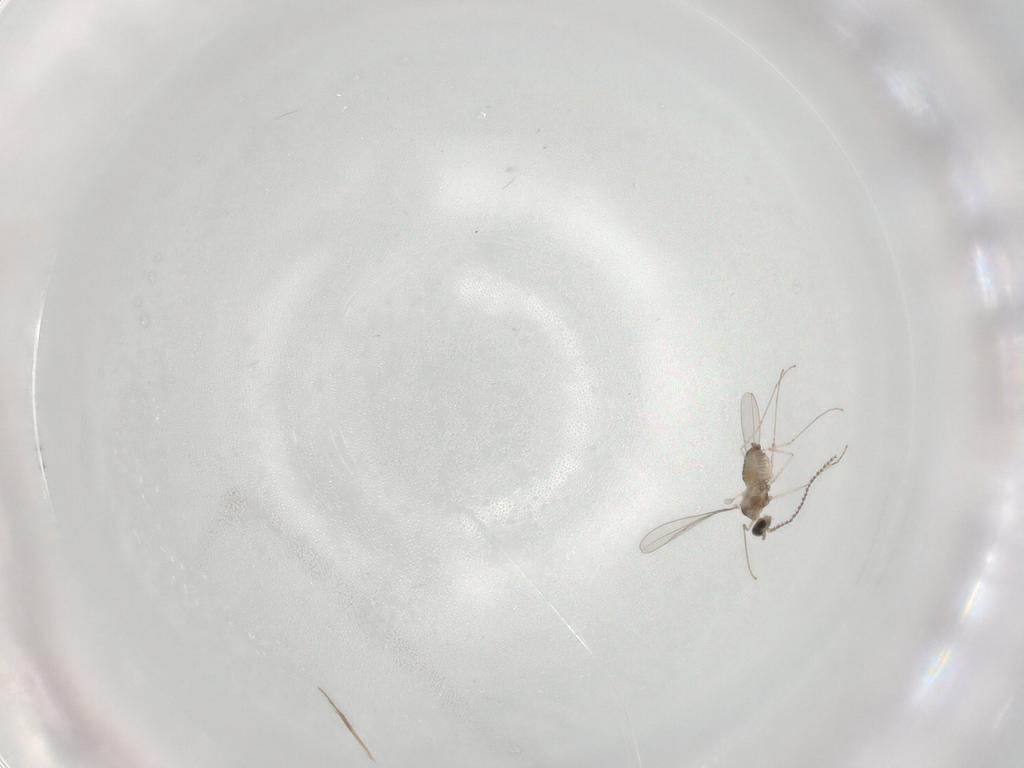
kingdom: Animalia
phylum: Arthropoda
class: Insecta
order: Diptera
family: Cecidomyiidae
